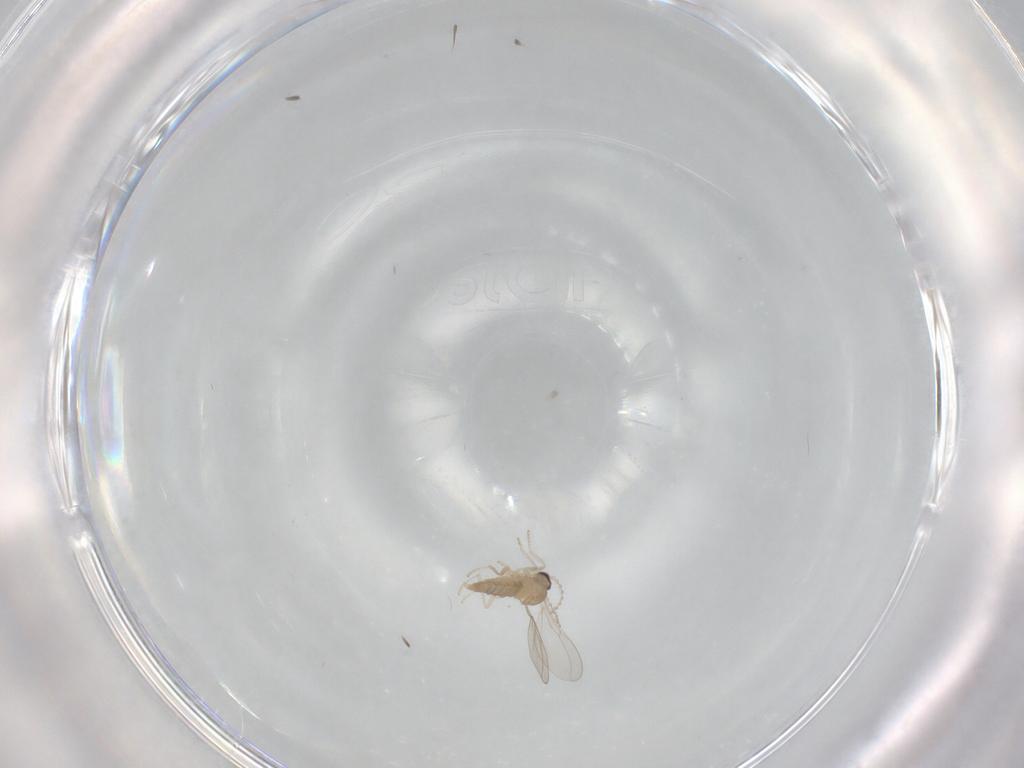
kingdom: Animalia
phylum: Arthropoda
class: Insecta
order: Diptera
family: Cecidomyiidae
